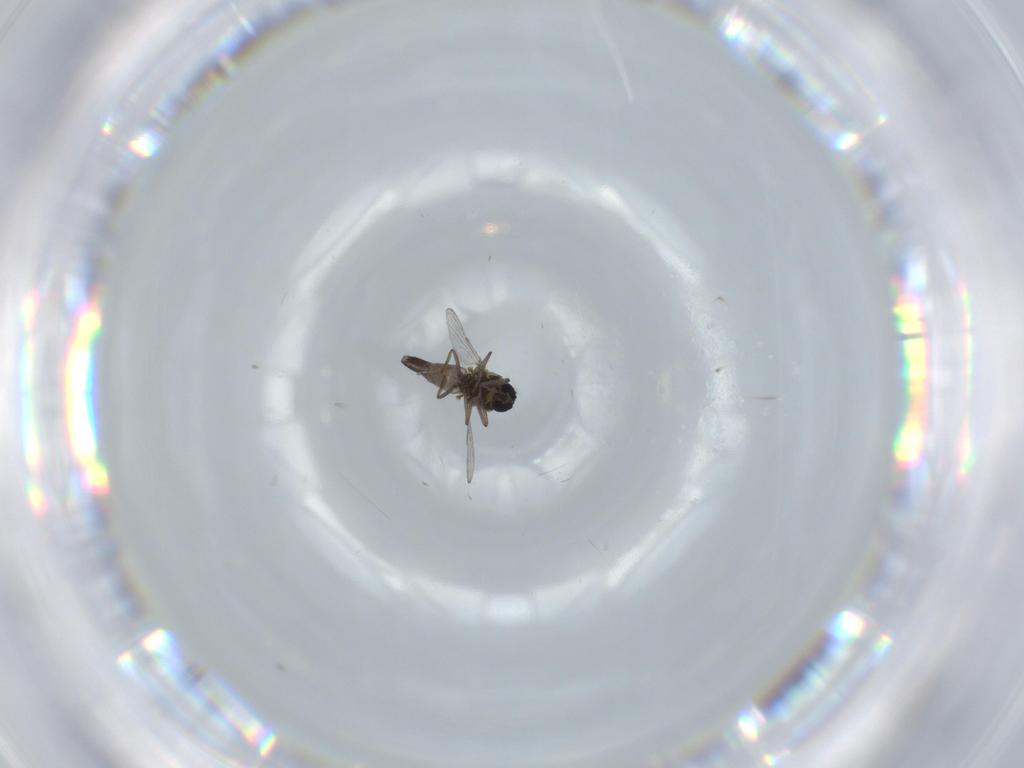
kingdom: Animalia
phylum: Arthropoda
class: Insecta
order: Diptera
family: Ceratopogonidae
